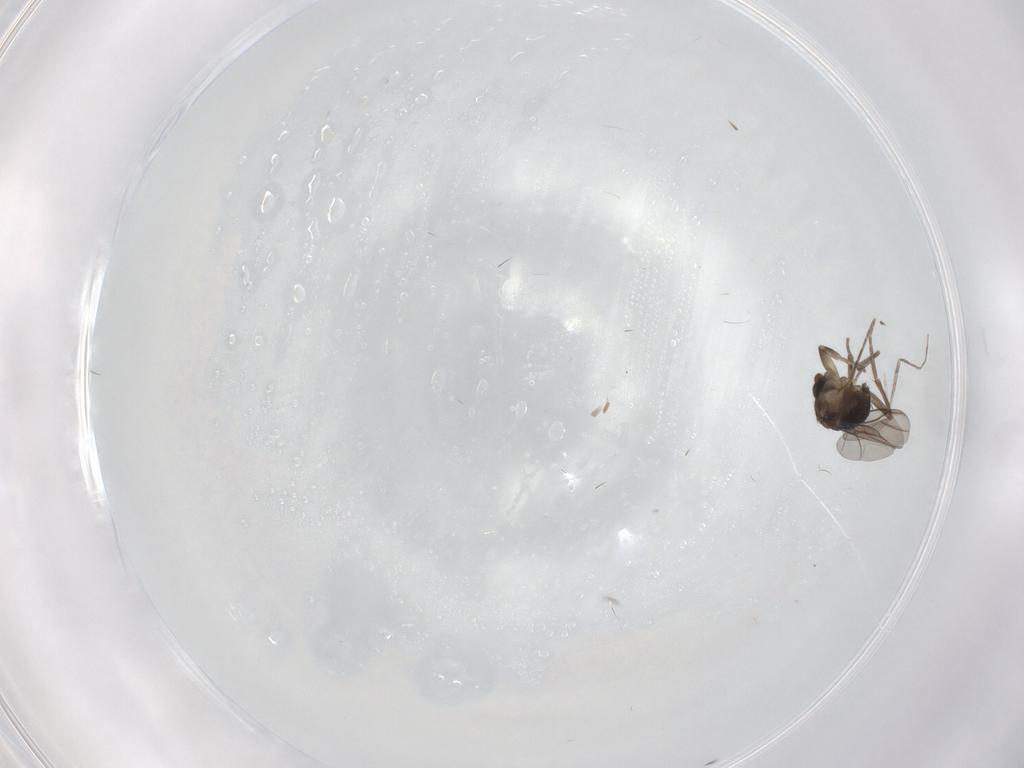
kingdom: Animalia
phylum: Arthropoda
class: Insecta
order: Diptera
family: Phoridae
